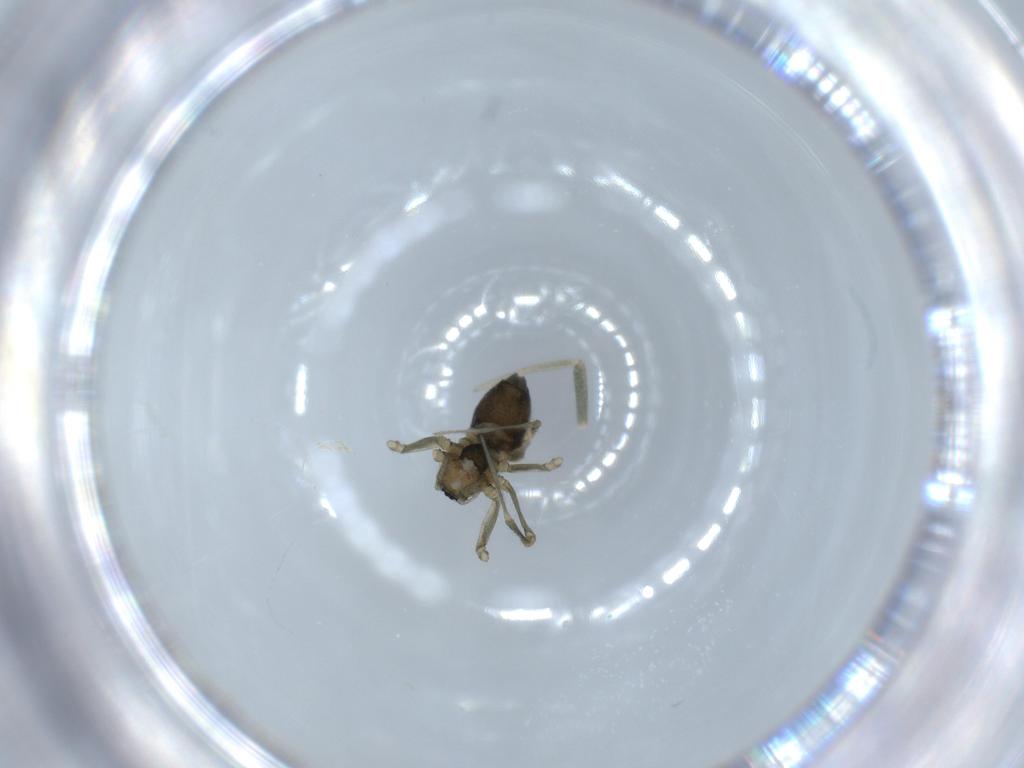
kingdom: Animalia
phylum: Arthropoda
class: Arachnida
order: Araneae
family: Linyphiidae
